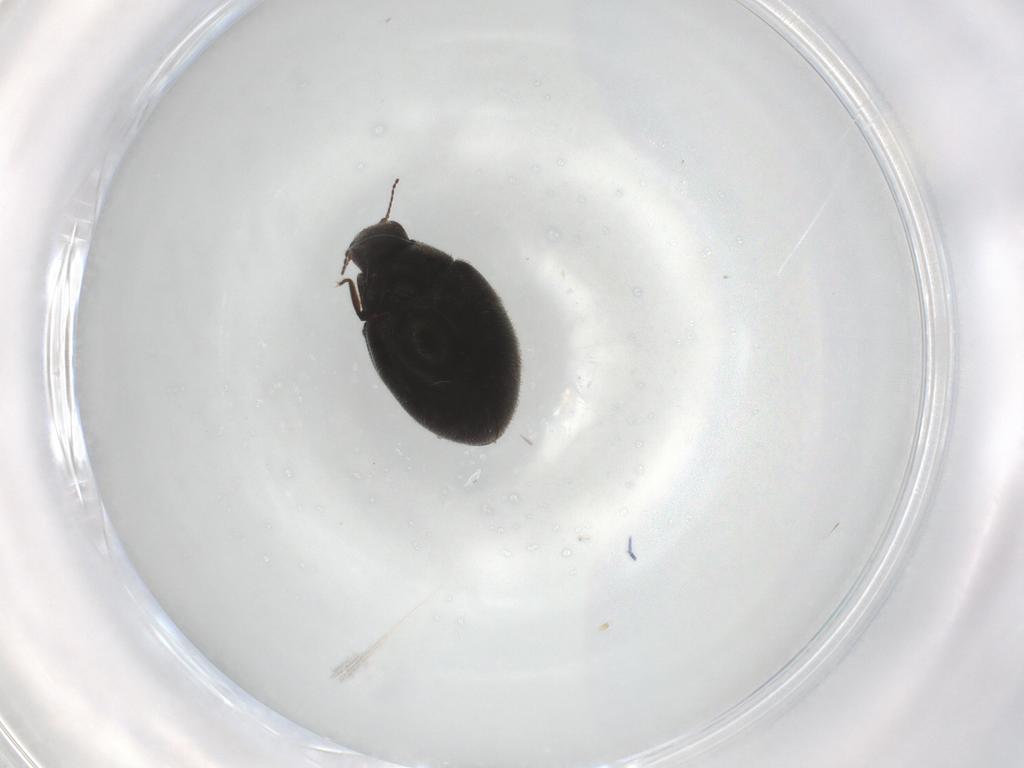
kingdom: Animalia
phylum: Arthropoda
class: Insecta
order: Coleoptera
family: Limnichidae
